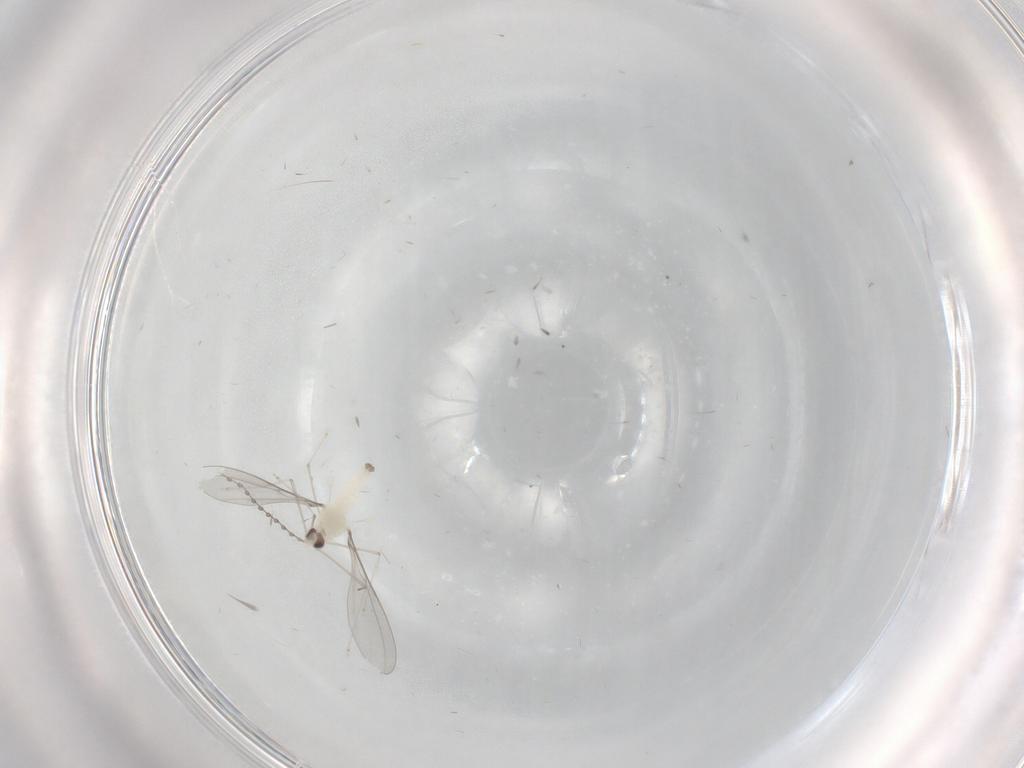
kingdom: Animalia
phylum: Arthropoda
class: Insecta
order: Diptera
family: Cecidomyiidae
